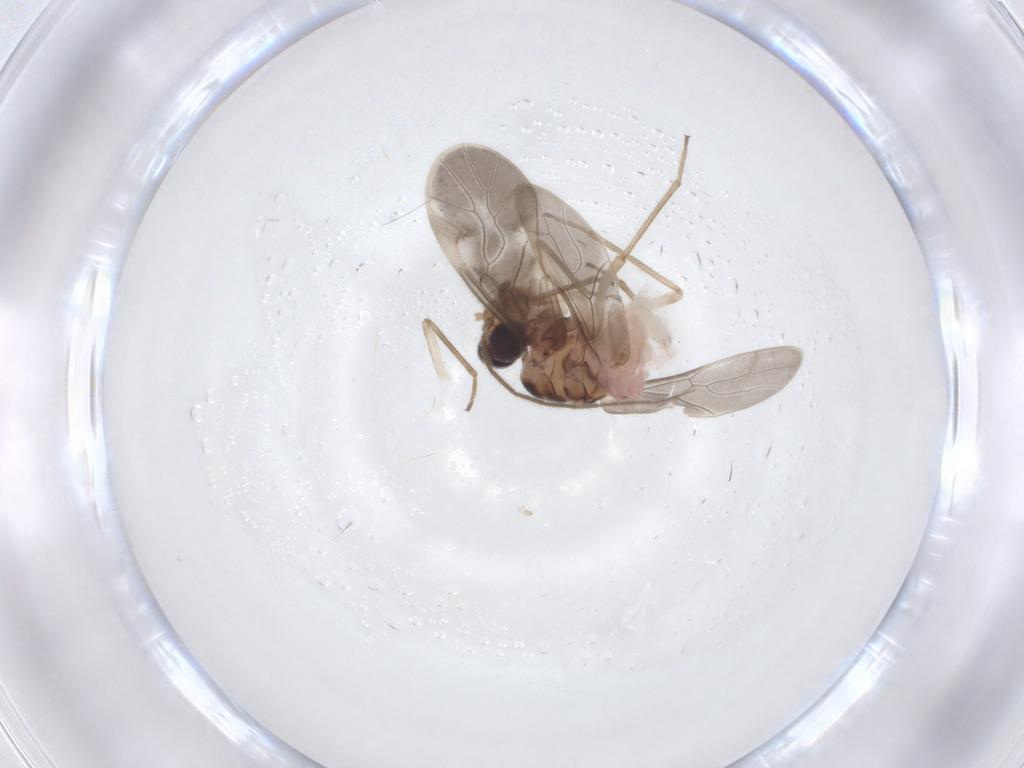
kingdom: Animalia
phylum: Arthropoda
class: Insecta
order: Psocodea
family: Caeciliusidae
